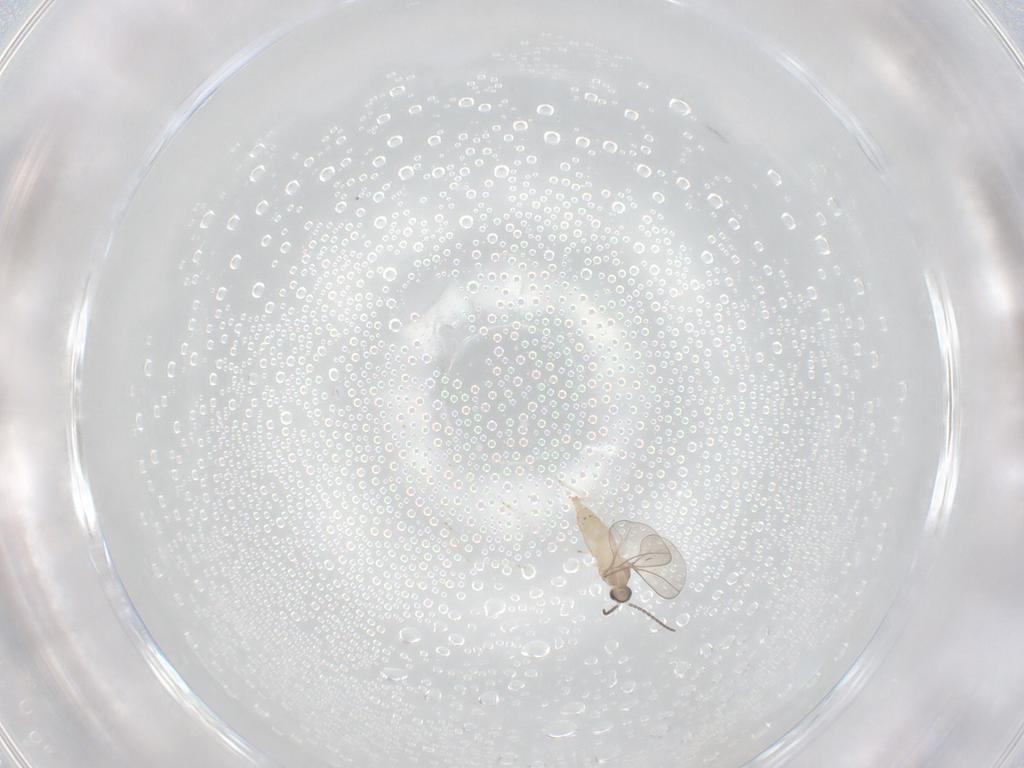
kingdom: Animalia
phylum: Arthropoda
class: Insecta
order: Diptera
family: Cecidomyiidae
